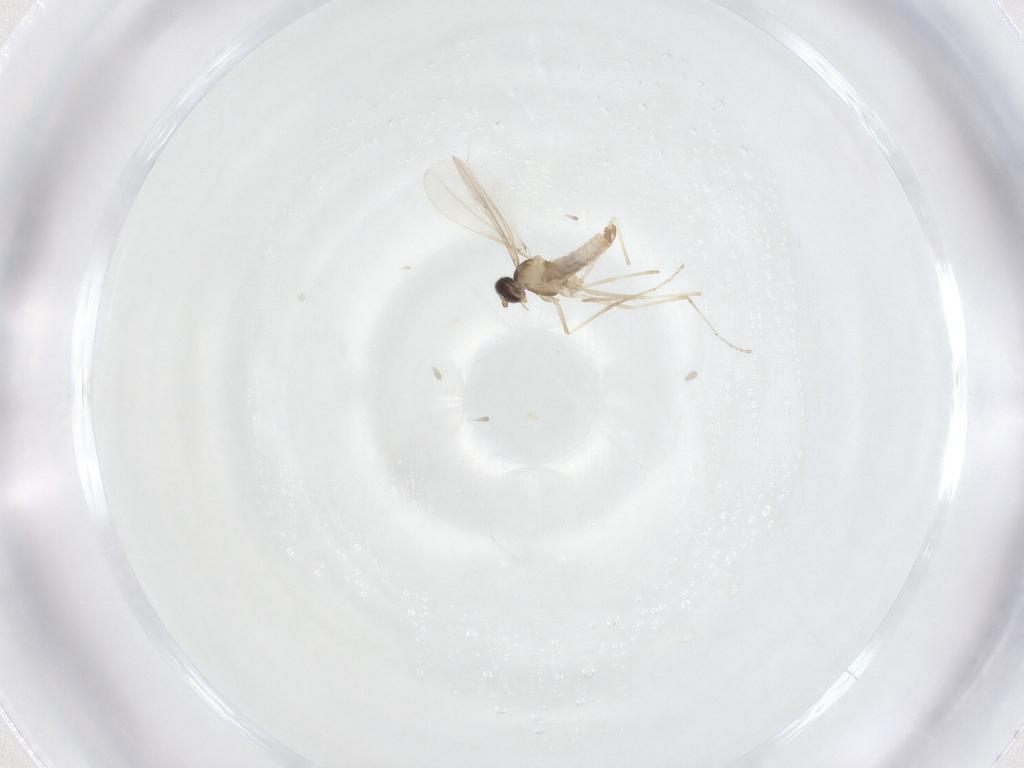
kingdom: Animalia
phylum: Arthropoda
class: Insecta
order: Diptera
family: Chironomidae
